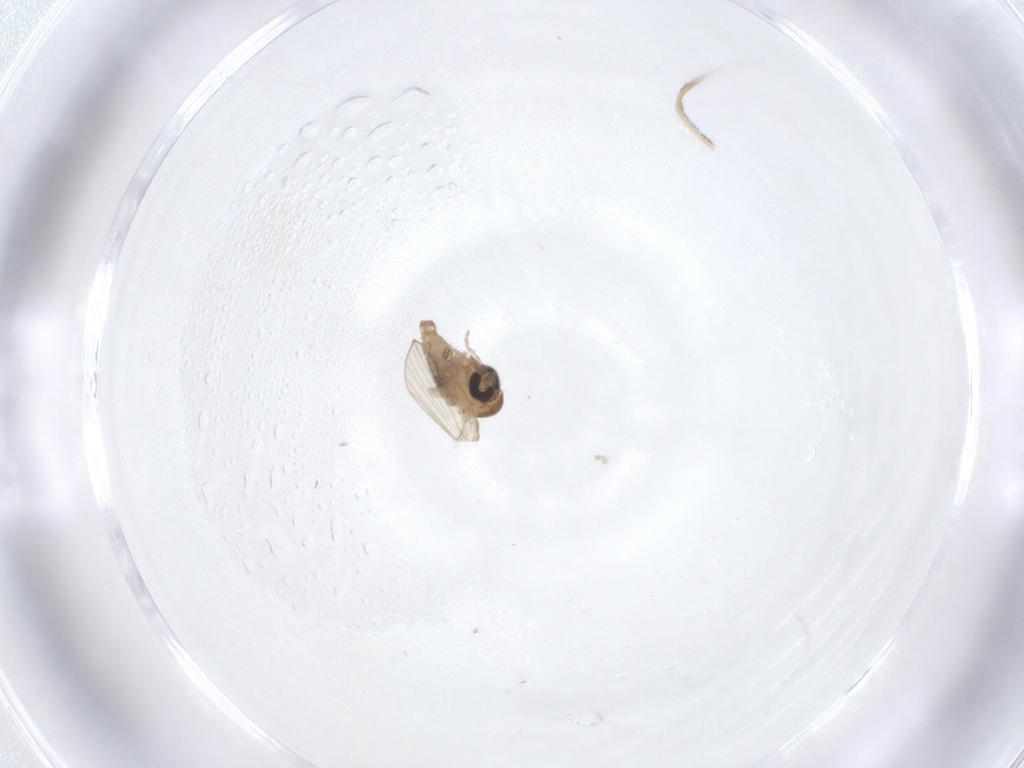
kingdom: Animalia
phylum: Arthropoda
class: Insecta
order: Diptera
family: Psychodidae
